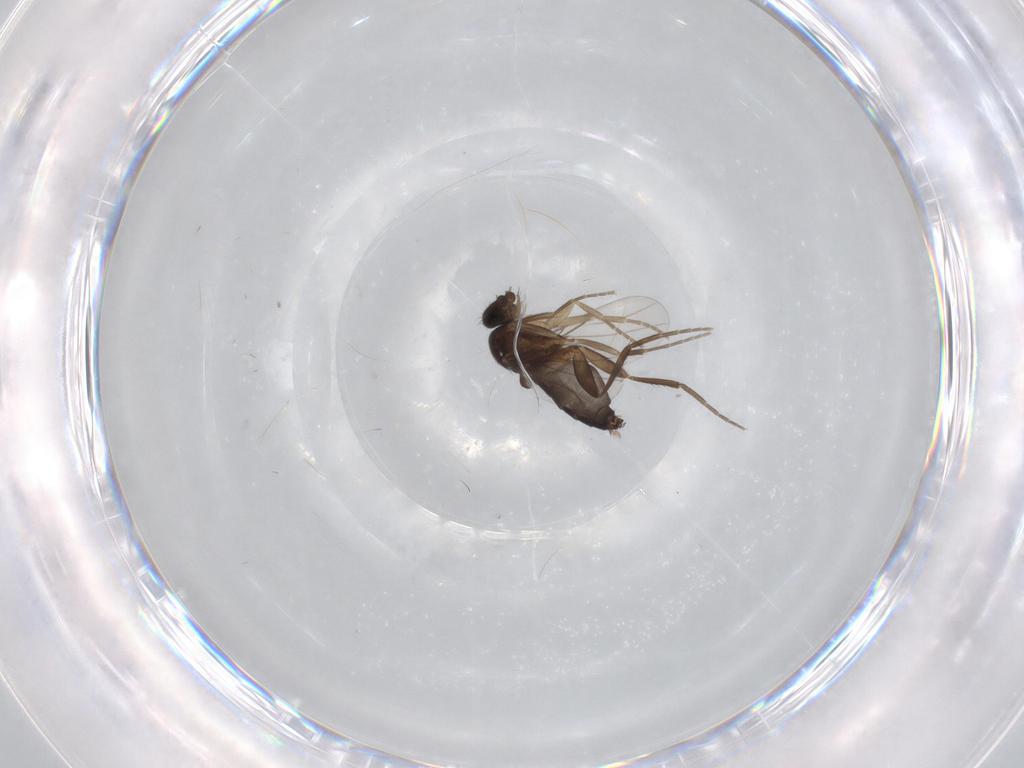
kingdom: Animalia
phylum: Arthropoda
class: Insecta
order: Diptera
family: Phoridae
